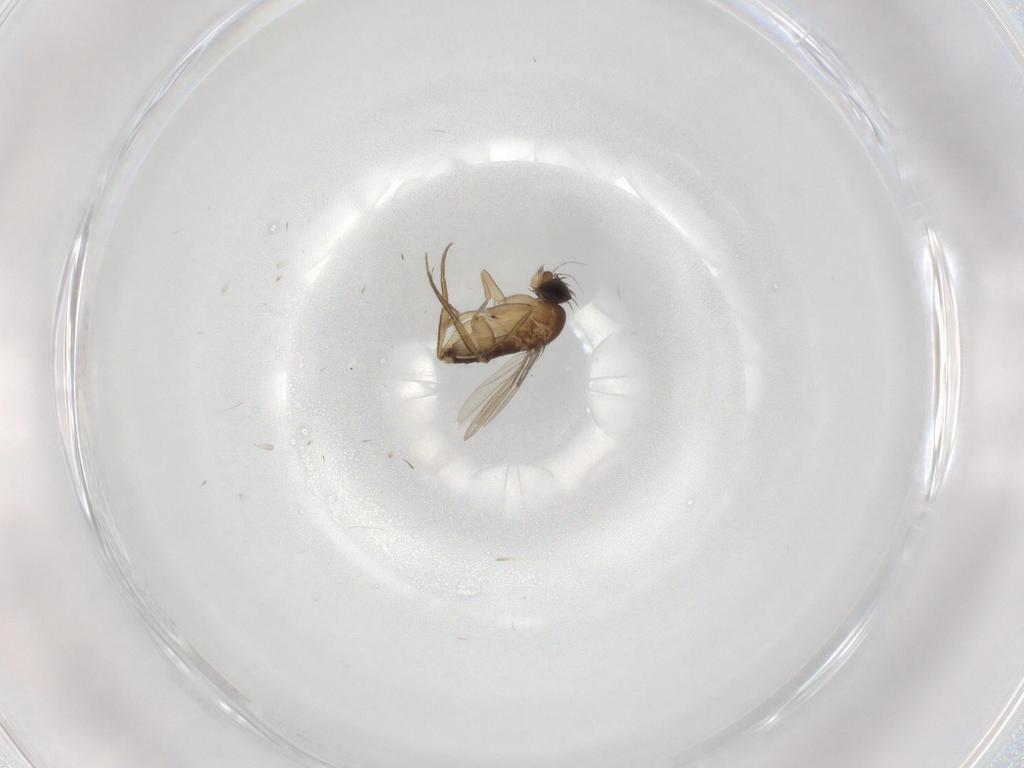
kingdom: Animalia
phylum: Arthropoda
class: Insecta
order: Diptera
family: Phoridae
